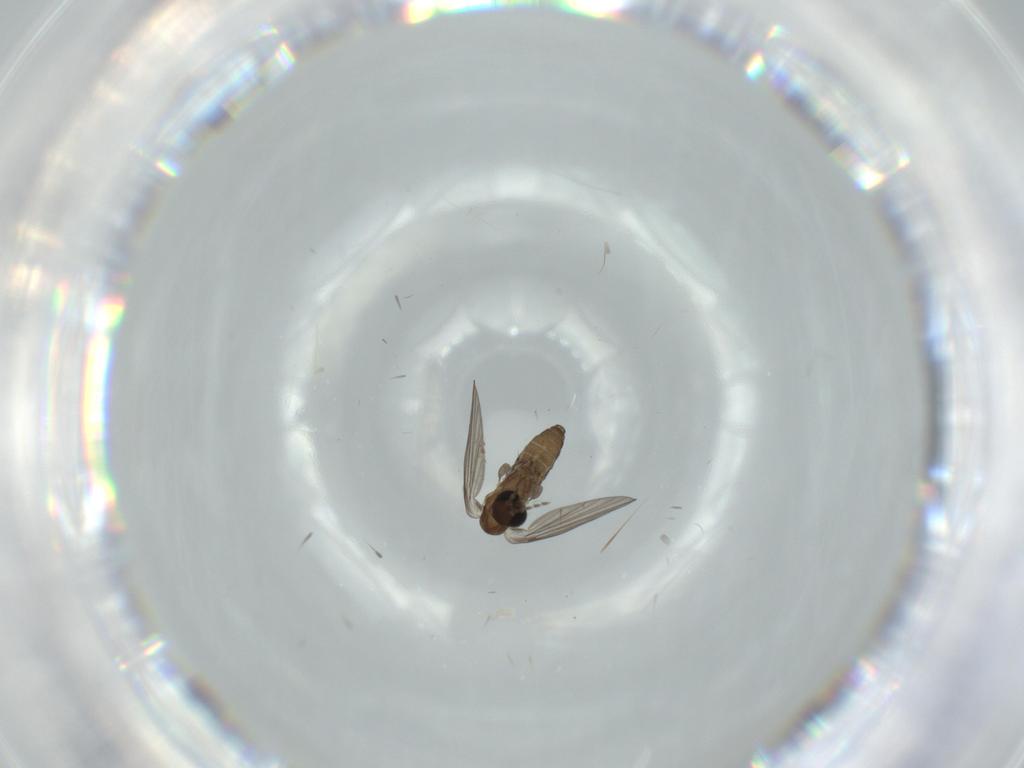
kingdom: Animalia
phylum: Arthropoda
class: Insecta
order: Diptera
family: Psychodidae
